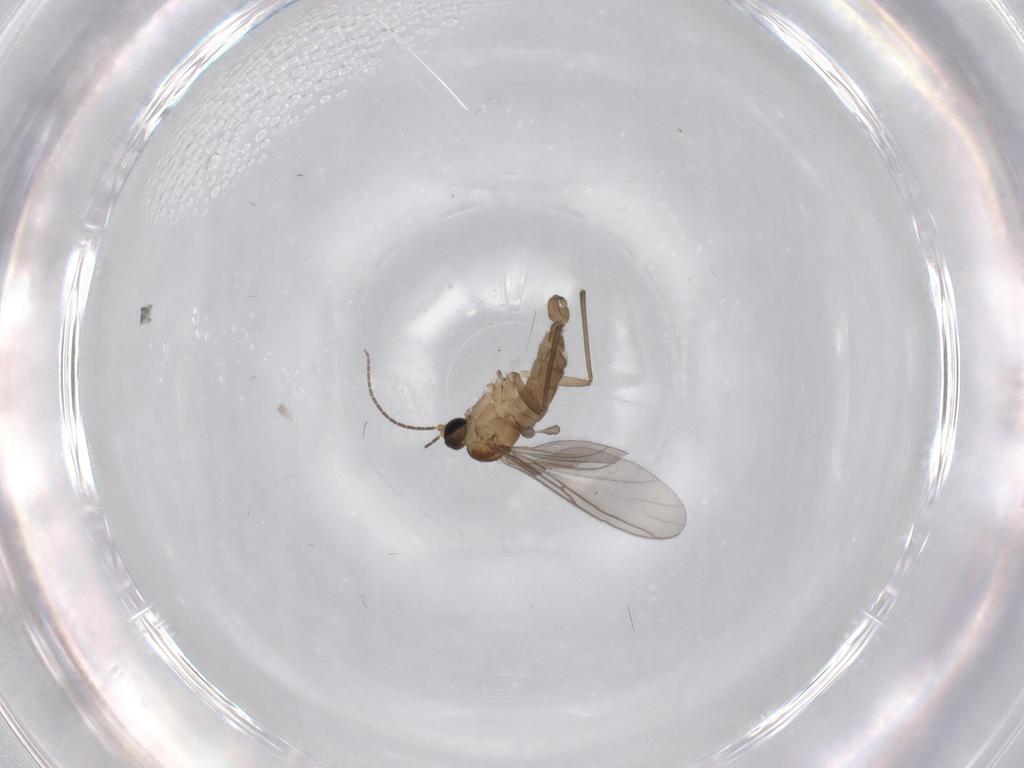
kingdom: Animalia
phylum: Arthropoda
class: Insecta
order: Diptera
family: Sciaridae
